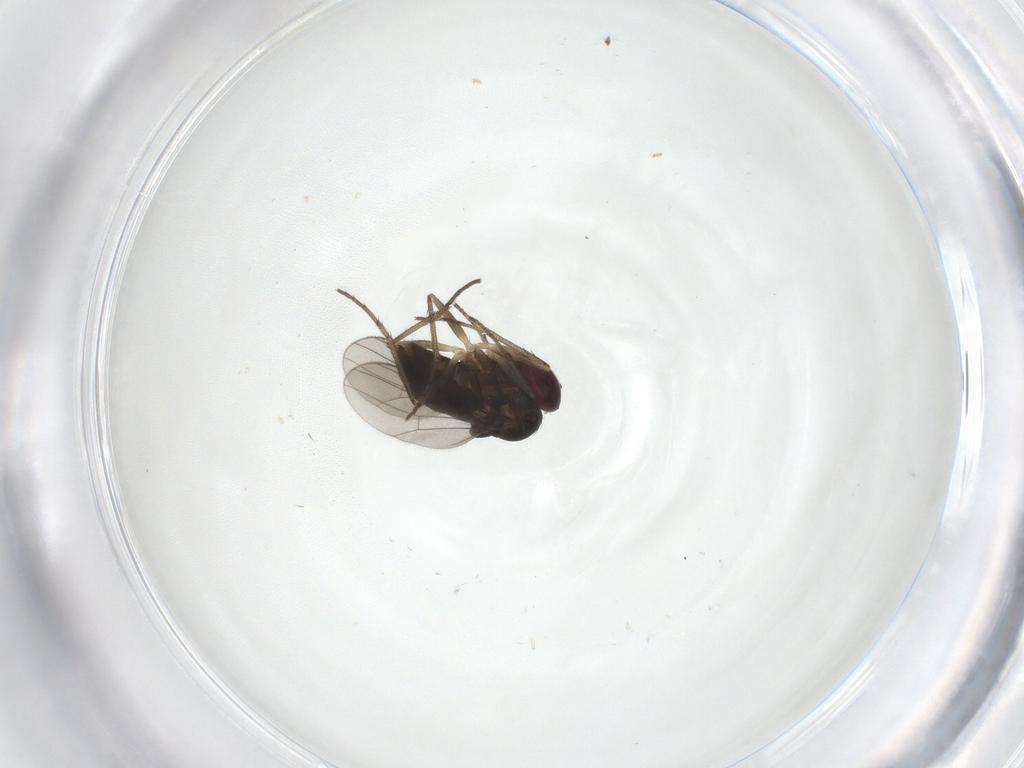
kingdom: Animalia
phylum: Arthropoda
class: Insecta
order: Diptera
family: Dolichopodidae
